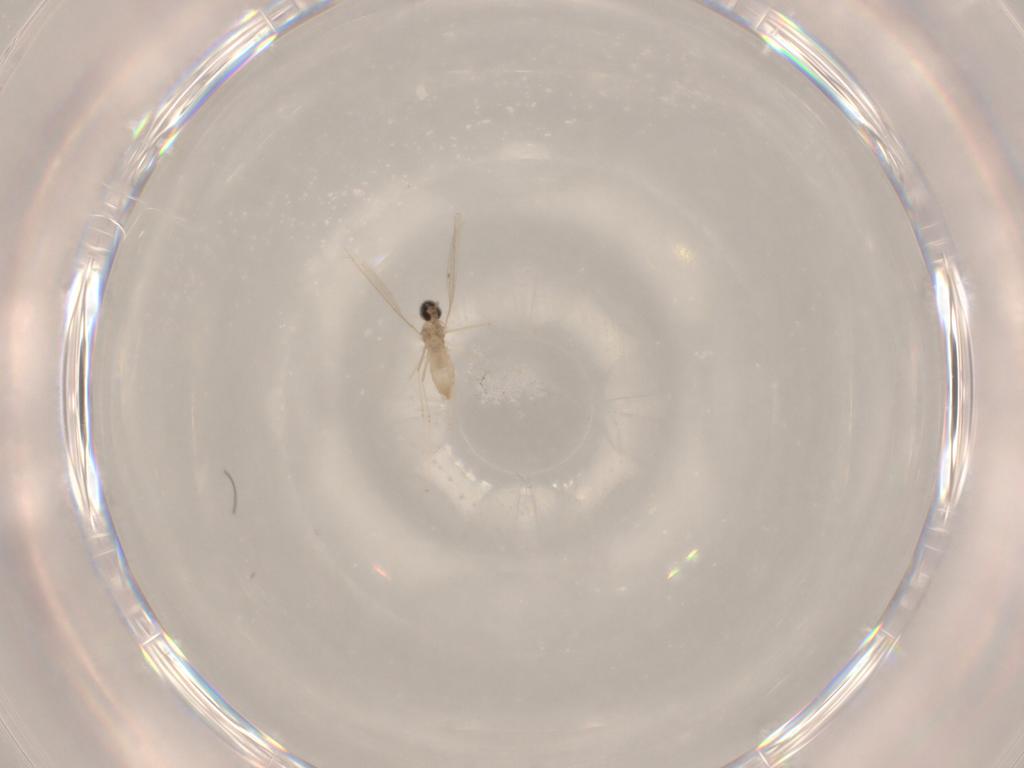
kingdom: Animalia
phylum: Arthropoda
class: Insecta
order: Diptera
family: Cecidomyiidae
